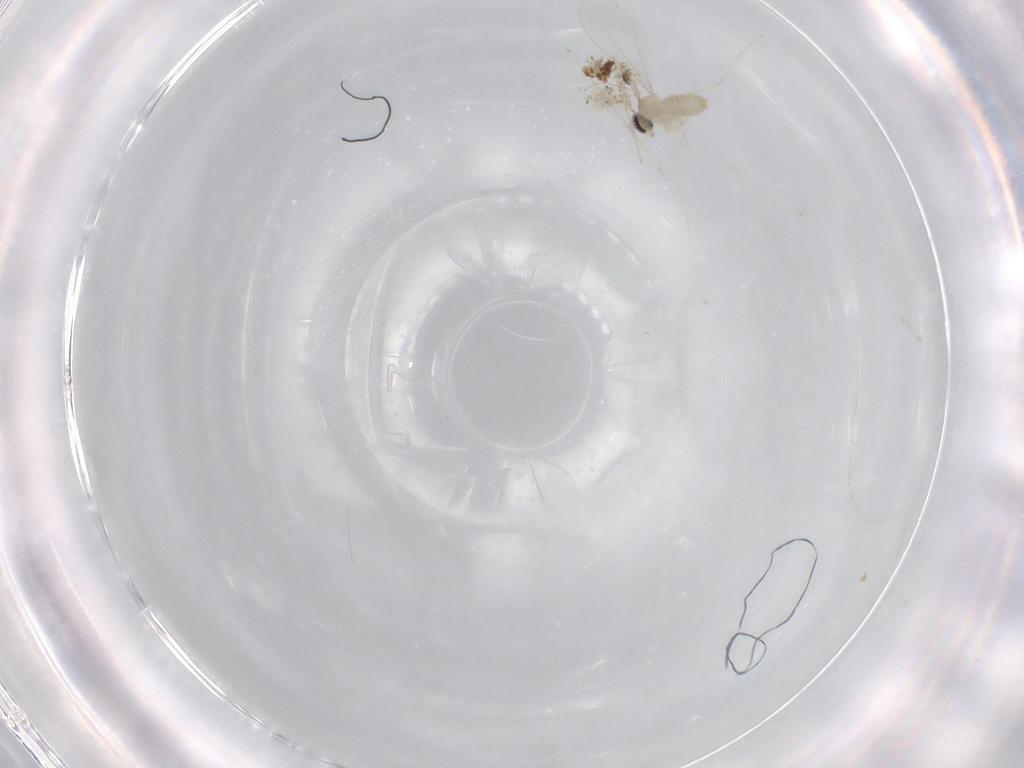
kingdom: Animalia
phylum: Arthropoda
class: Insecta
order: Diptera
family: Cecidomyiidae
